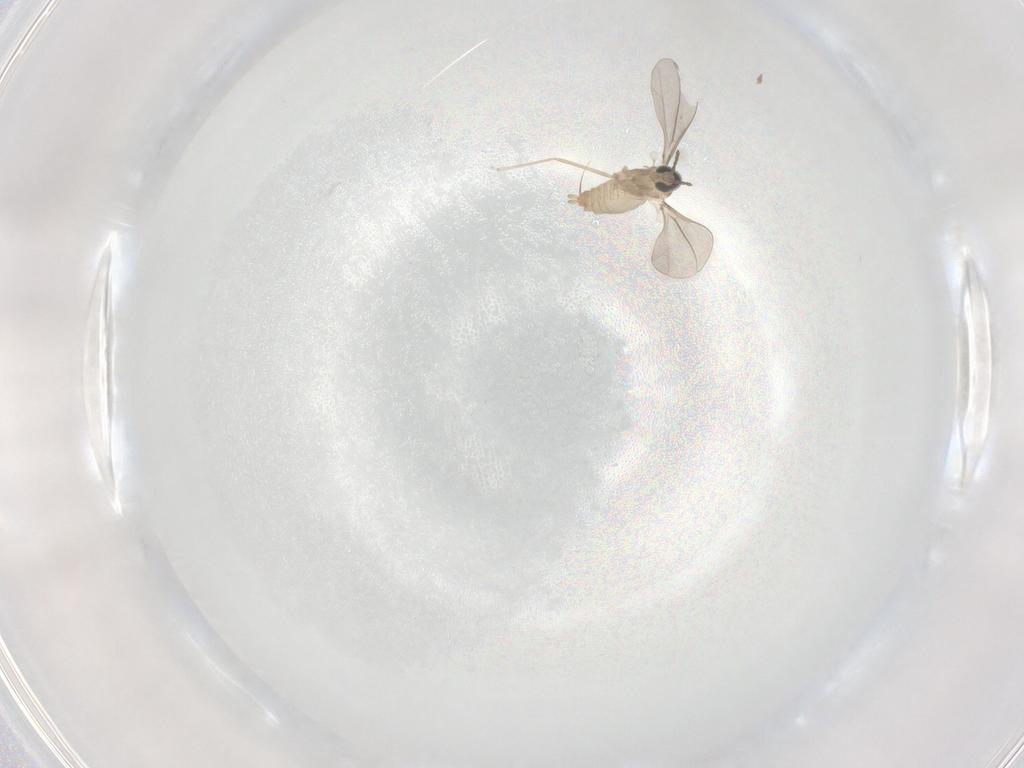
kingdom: Animalia
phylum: Arthropoda
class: Insecta
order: Diptera
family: Cecidomyiidae
